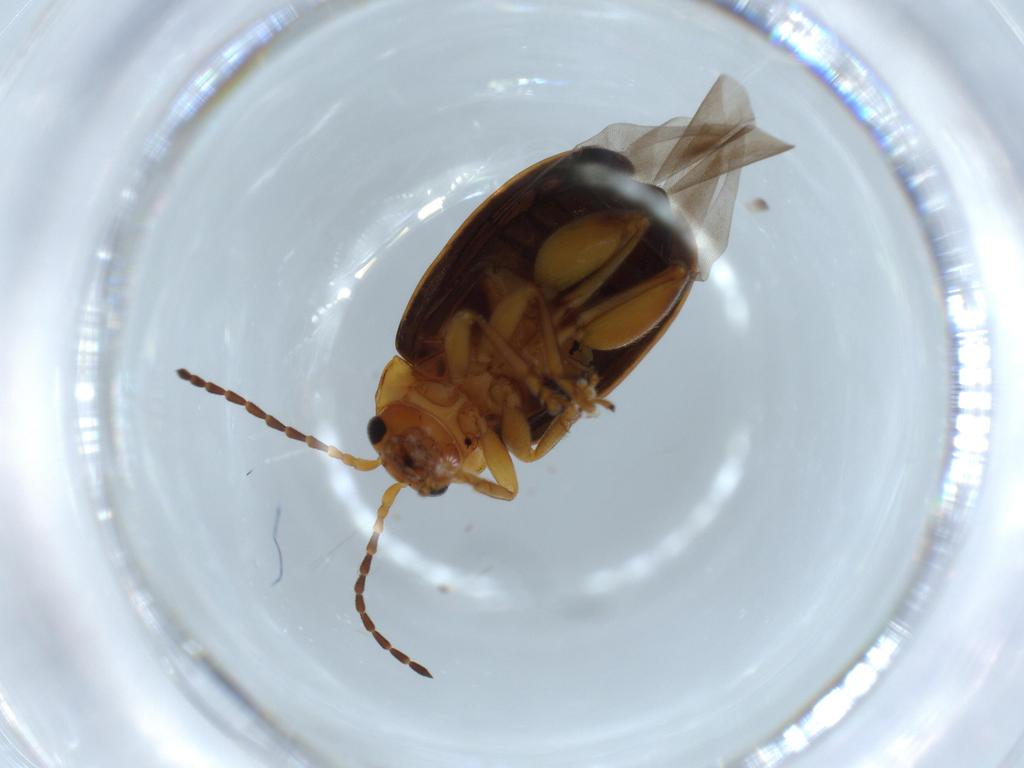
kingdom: Animalia
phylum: Arthropoda
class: Insecta
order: Coleoptera
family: Chrysomelidae
